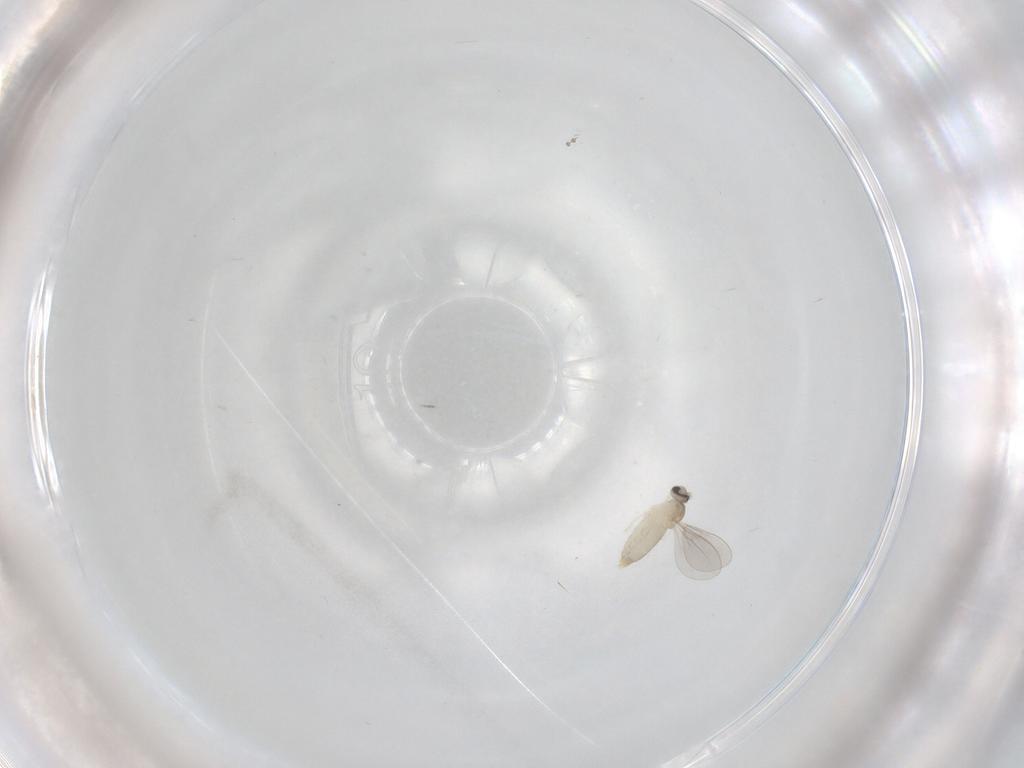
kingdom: Animalia
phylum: Arthropoda
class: Insecta
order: Diptera
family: Cecidomyiidae
